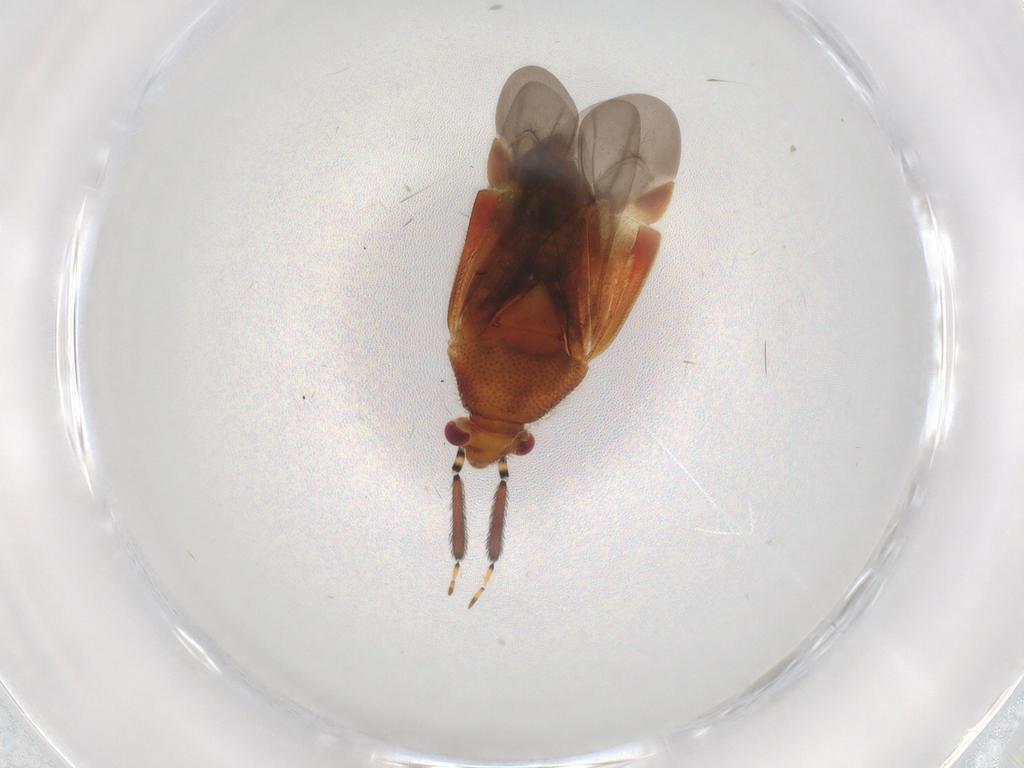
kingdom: Animalia
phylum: Arthropoda
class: Insecta
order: Hemiptera
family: Miridae
